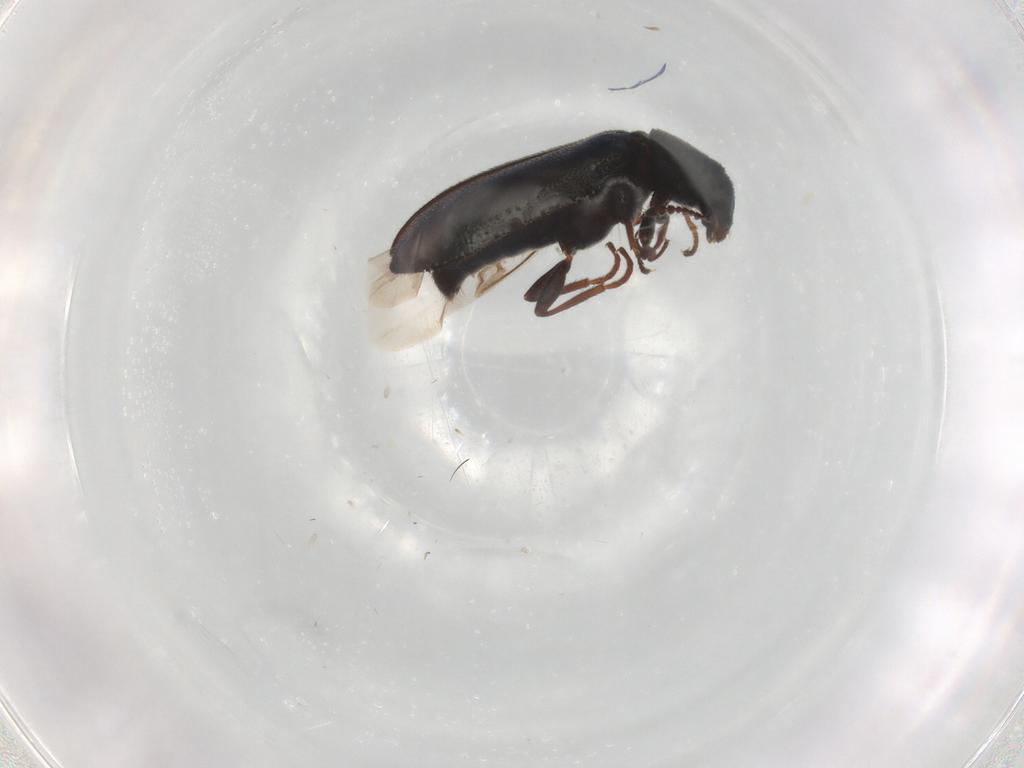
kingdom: Animalia
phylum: Arthropoda
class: Insecta
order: Coleoptera
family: Melyridae
